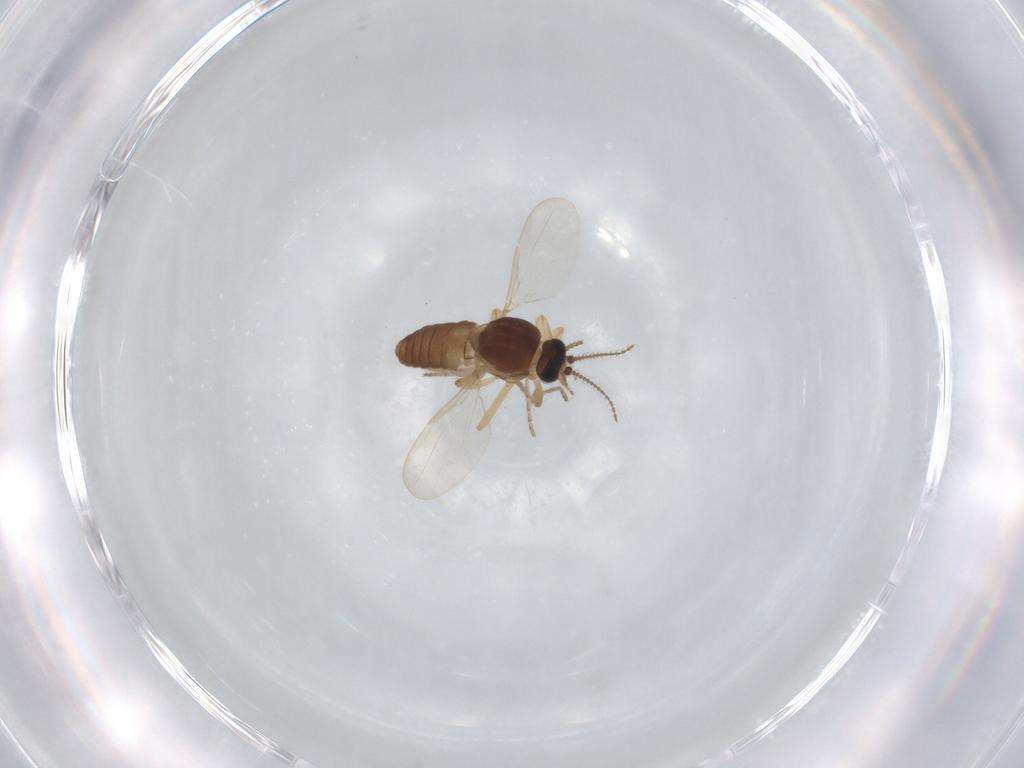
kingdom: Animalia
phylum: Arthropoda
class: Insecta
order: Diptera
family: Ceratopogonidae
